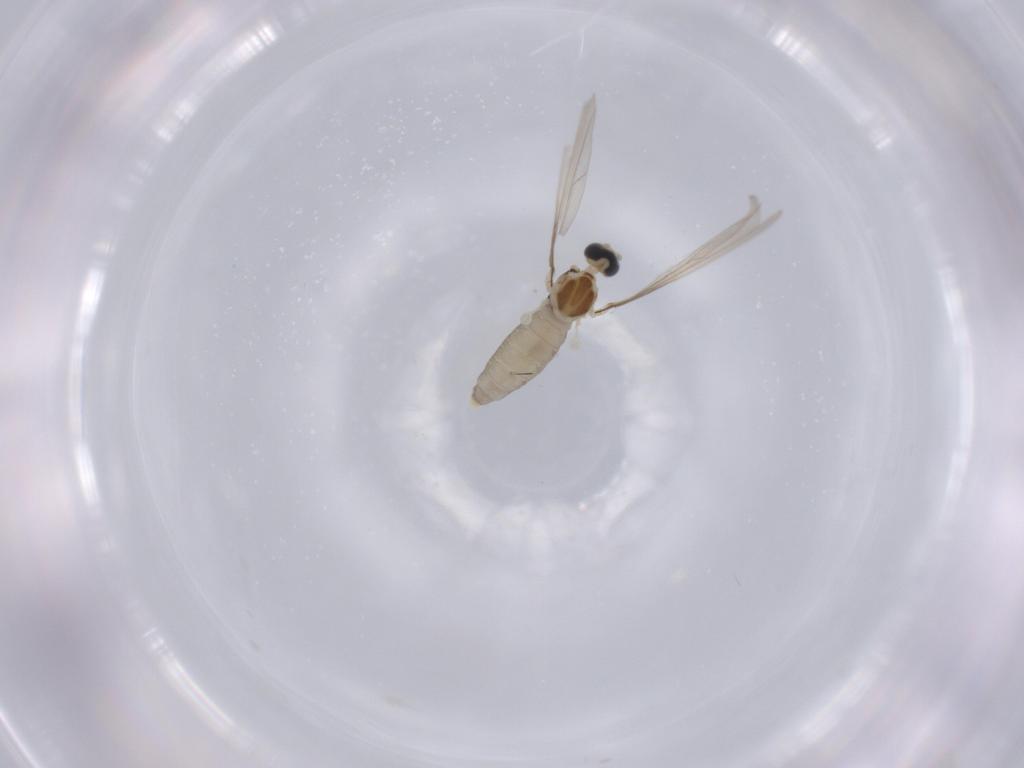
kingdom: Animalia
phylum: Arthropoda
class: Insecta
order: Diptera
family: Cecidomyiidae
